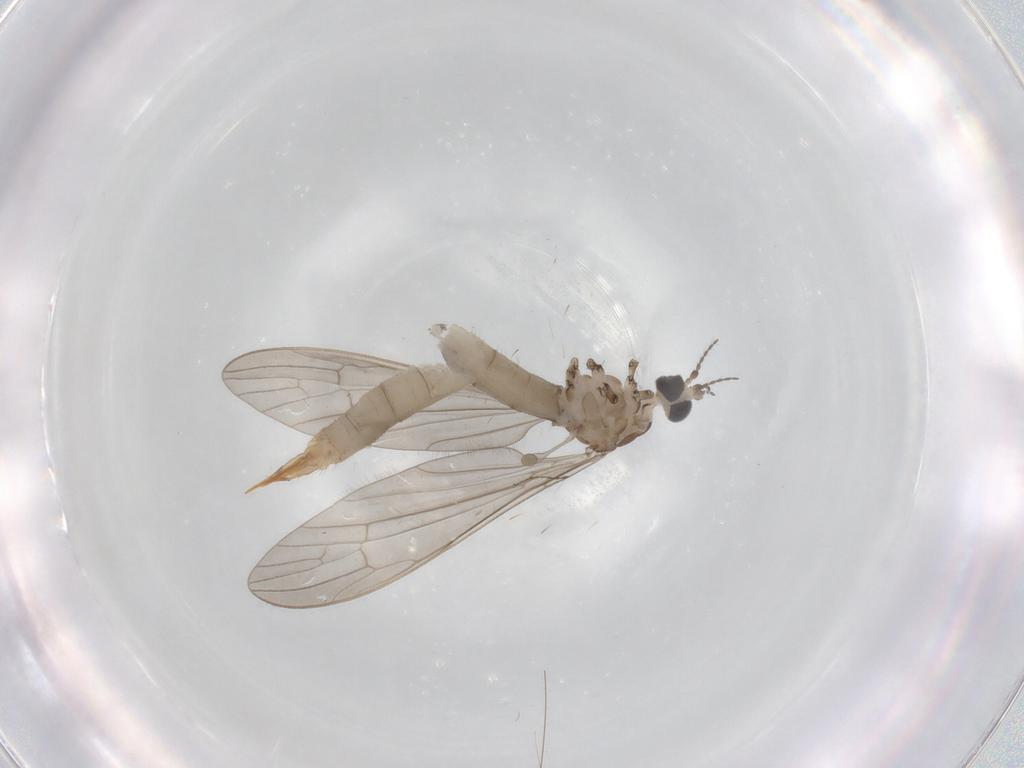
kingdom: Animalia
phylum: Arthropoda
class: Insecta
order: Diptera
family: Limoniidae
